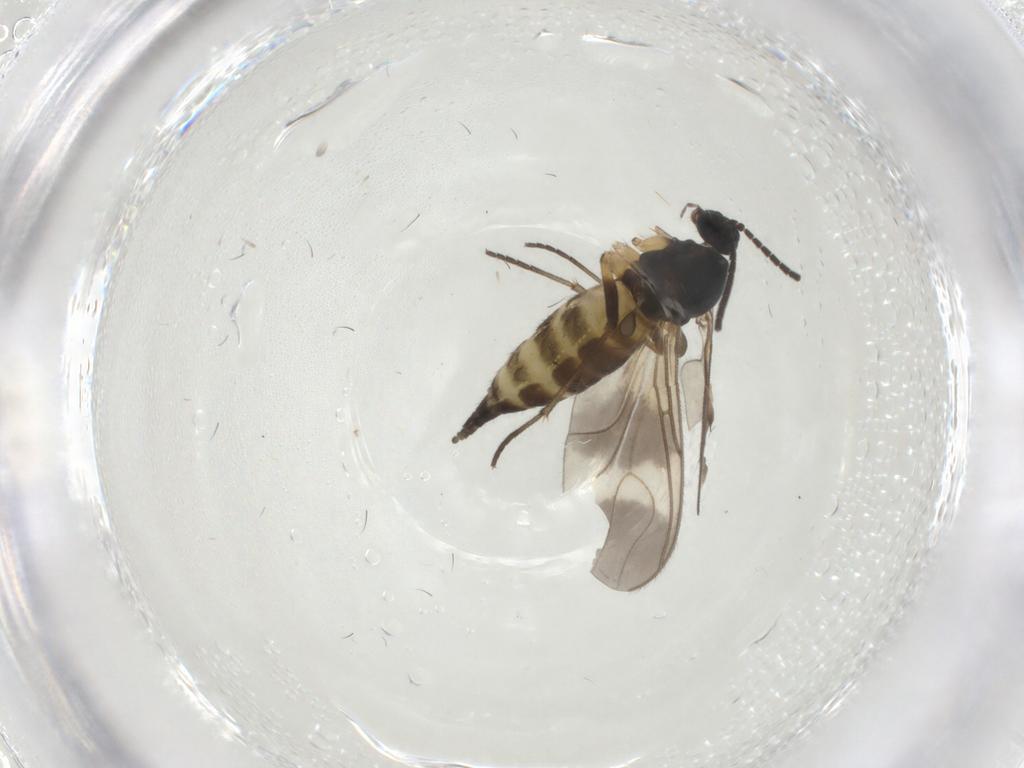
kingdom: Animalia
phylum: Arthropoda
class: Insecta
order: Diptera
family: Sciaridae
